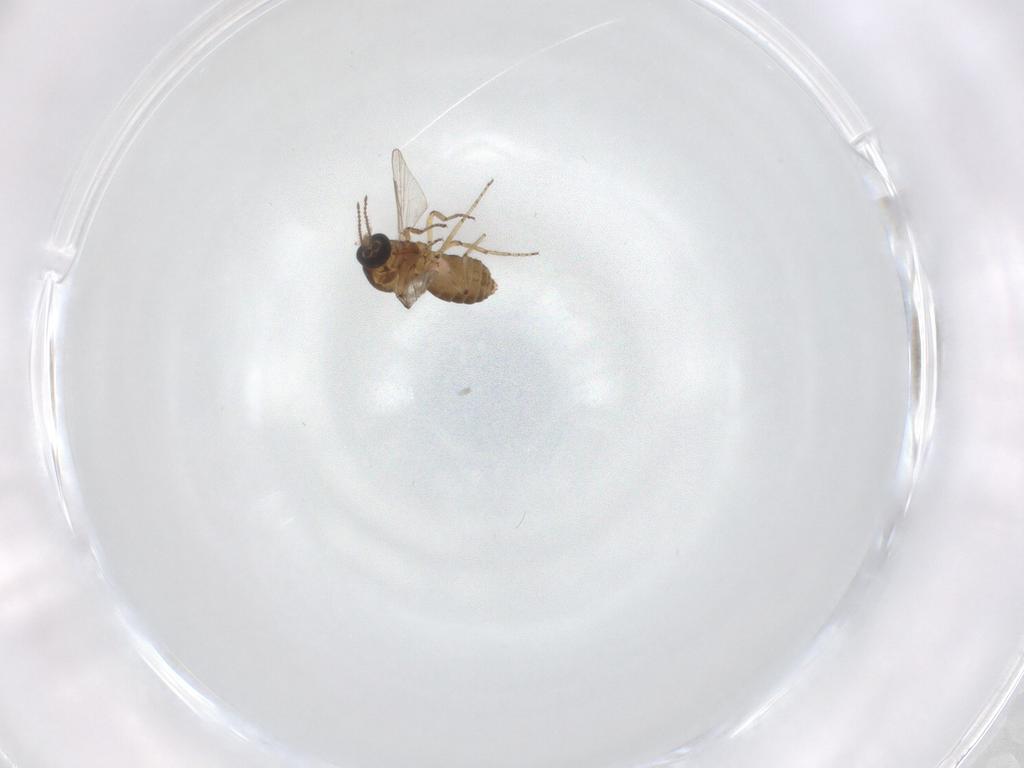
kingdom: Animalia
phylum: Arthropoda
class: Insecta
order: Diptera
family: Ceratopogonidae
